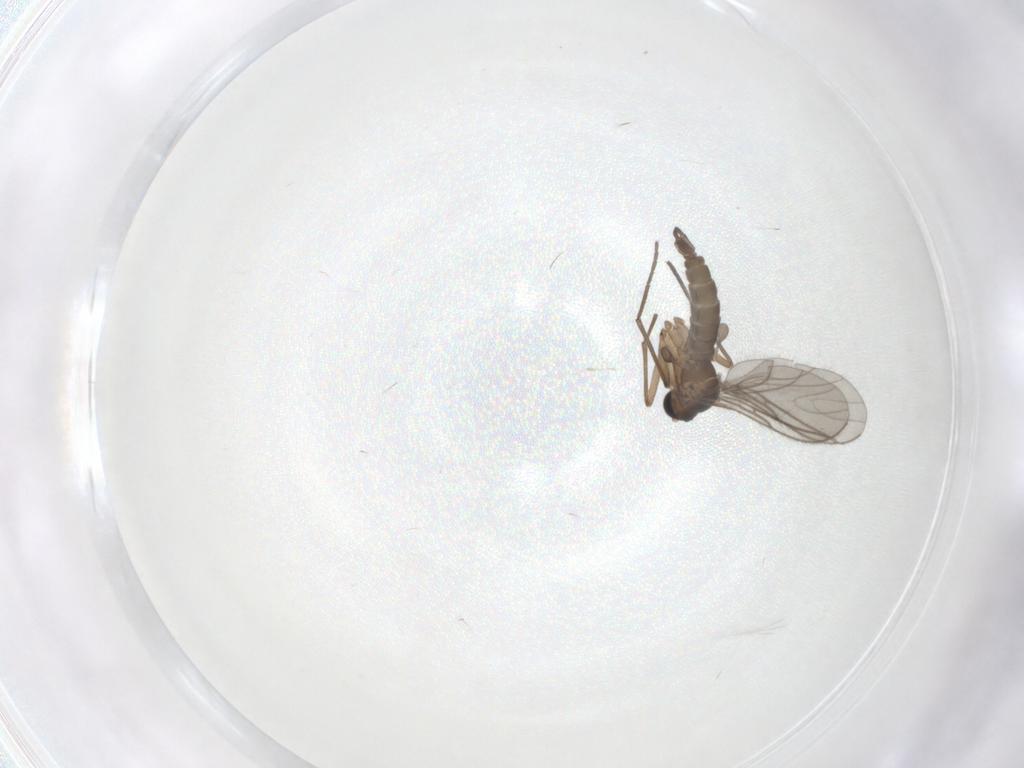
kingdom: Animalia
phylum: Arthropoda
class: Insecta
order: Diptera
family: Sciaridae
